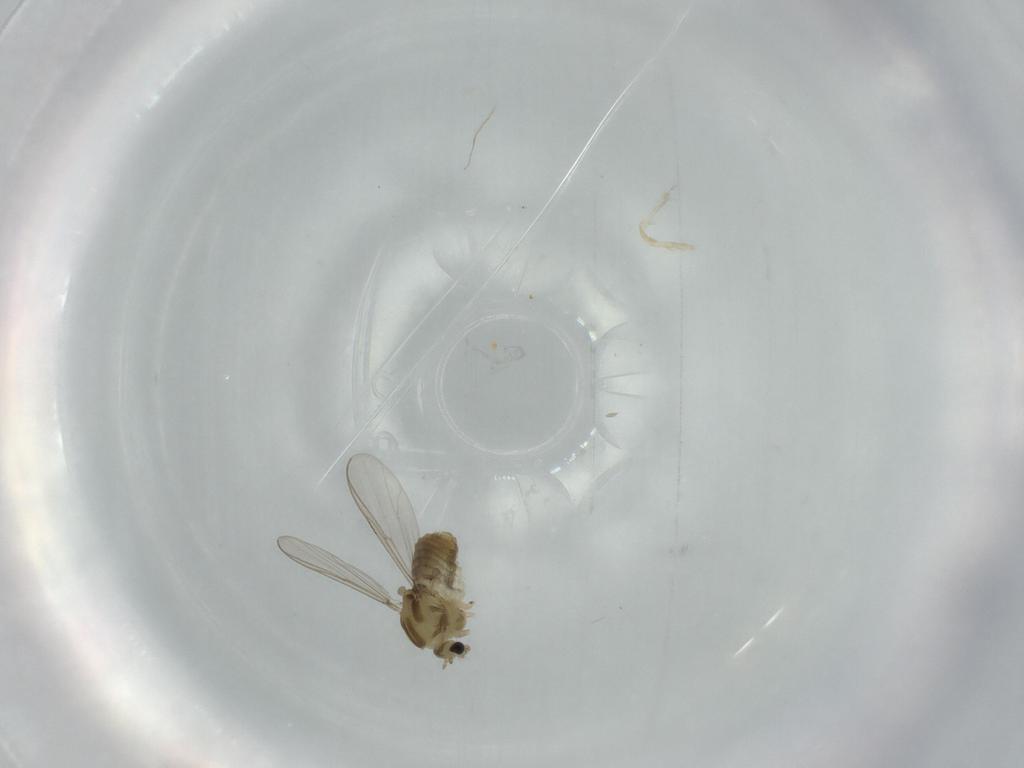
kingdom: Animalia
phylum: Arthropoda
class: Insecta
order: Diptera
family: Chironomidae
